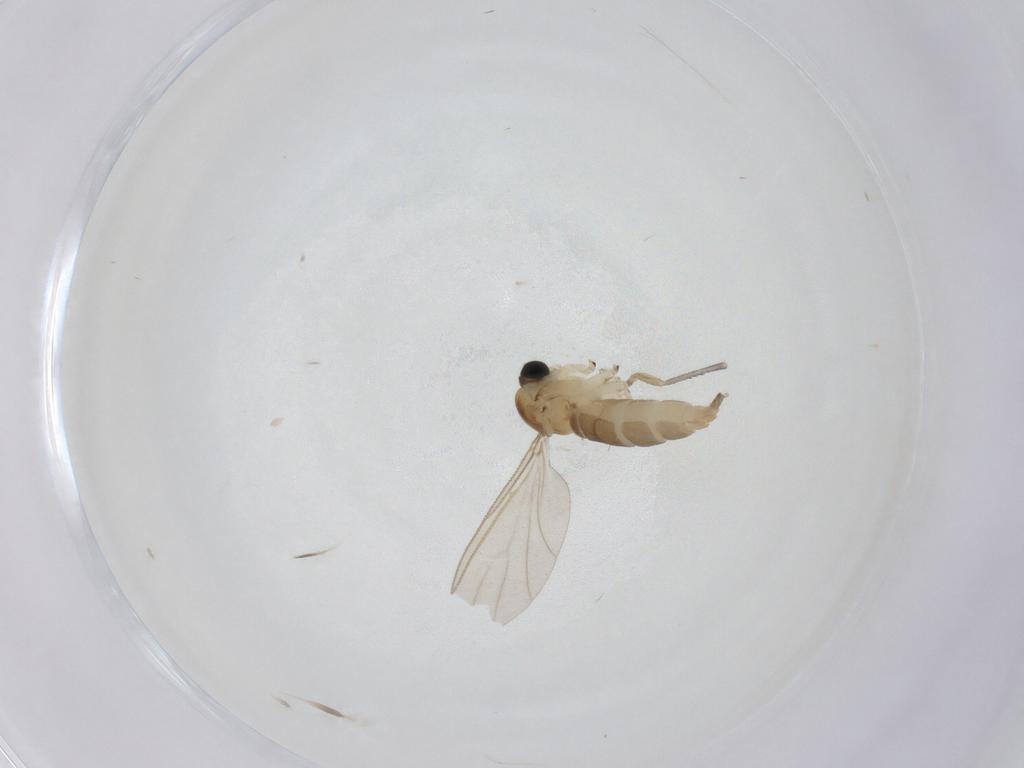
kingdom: Animalia
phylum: Arthropoda
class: Insecta
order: Diptera
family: Sciaridae
